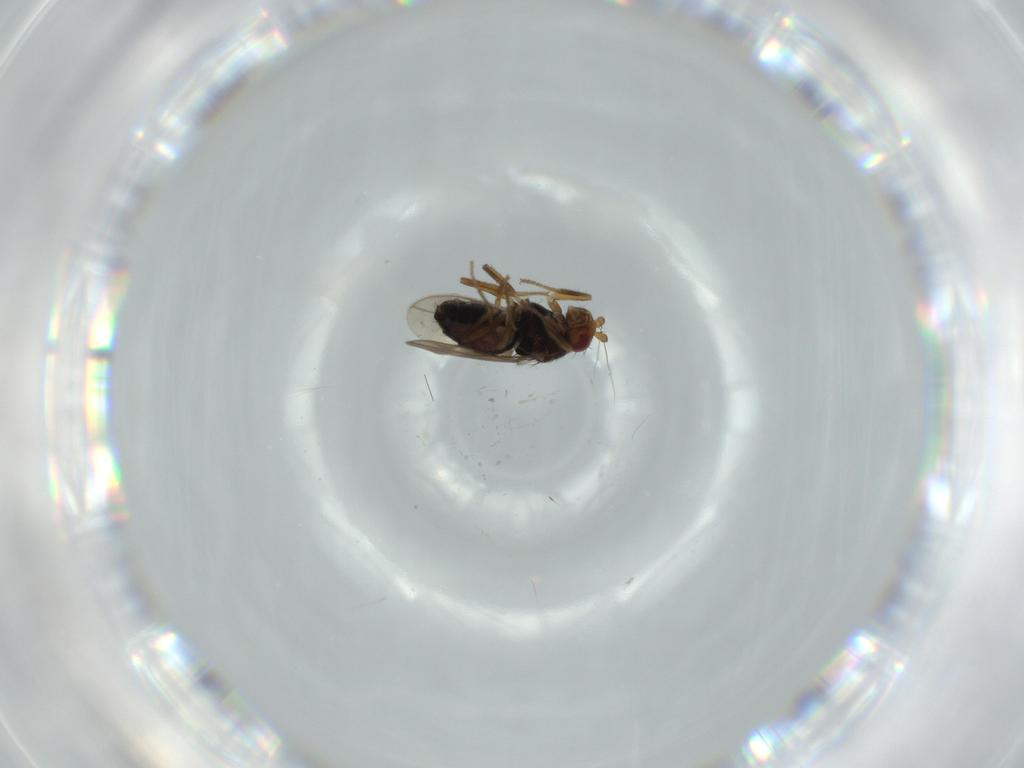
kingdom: Animalia
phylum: Arthropoda
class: Insecta
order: Diptera
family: Sphaeroceridae
